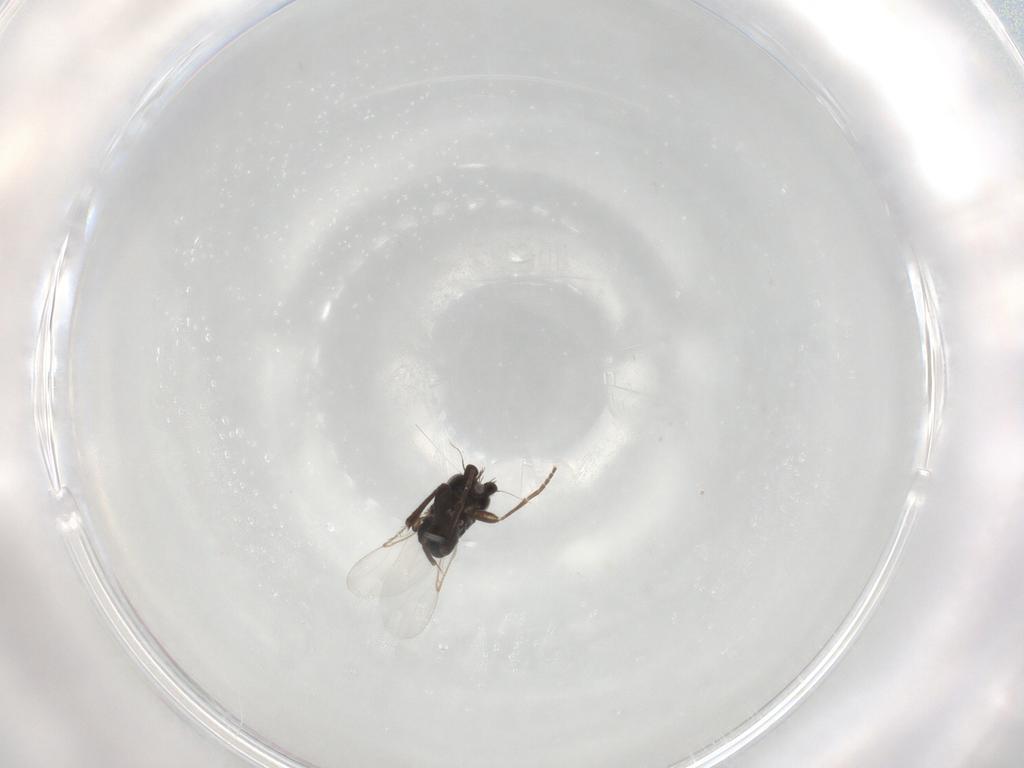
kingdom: Animalia
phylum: Arthropoda
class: Insecta
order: Diptera
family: Phoridae
